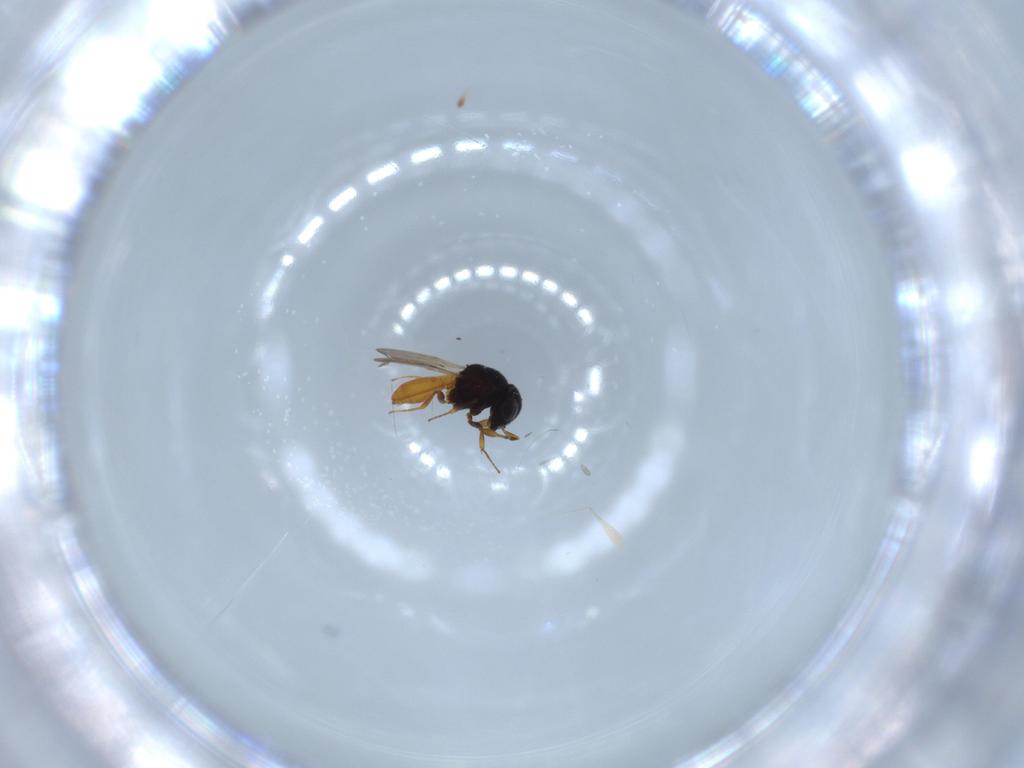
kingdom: Animalia
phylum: Arthropoda
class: Insecta
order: Hymenoptera
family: Scelionidae
